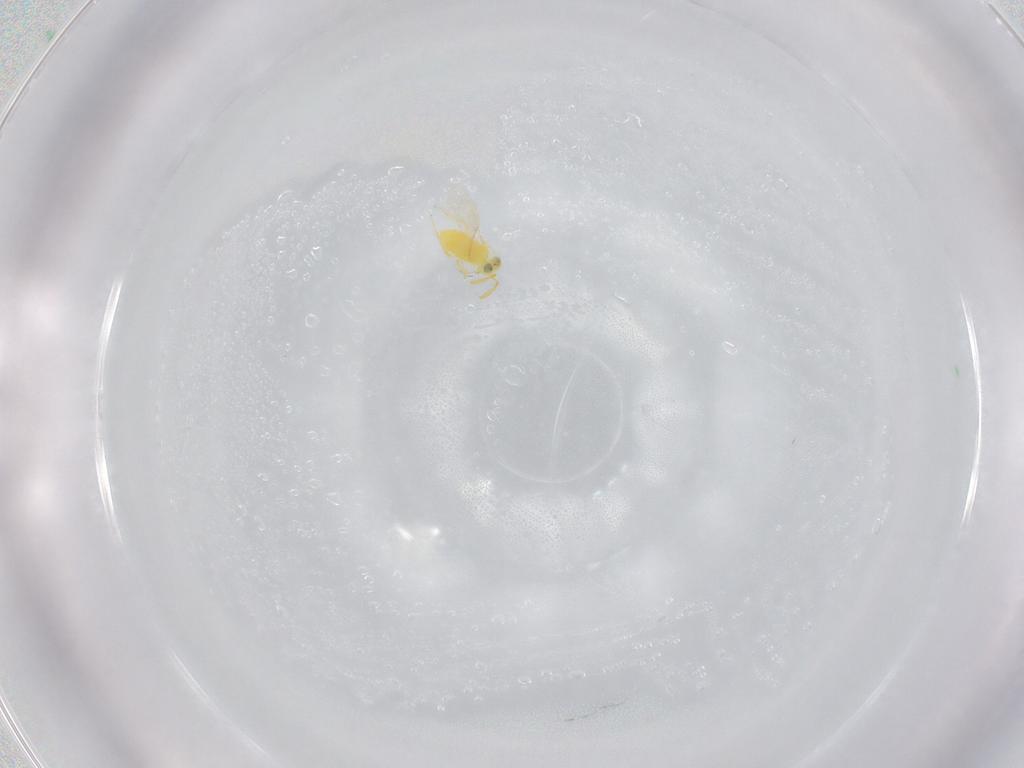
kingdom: Animalia
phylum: Arthropoda
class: Insecta
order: Hymenoptera
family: Aphelinidae
